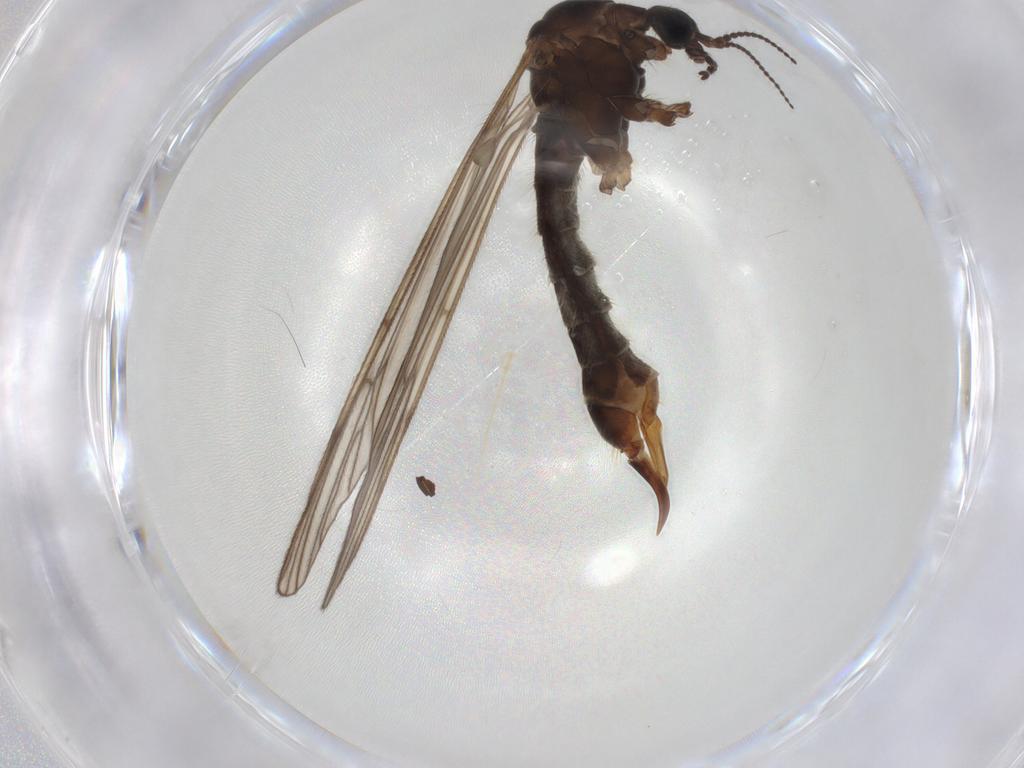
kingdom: Animalia
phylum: Arthropoda
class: Insecta
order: Diptera
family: Limoniidae
